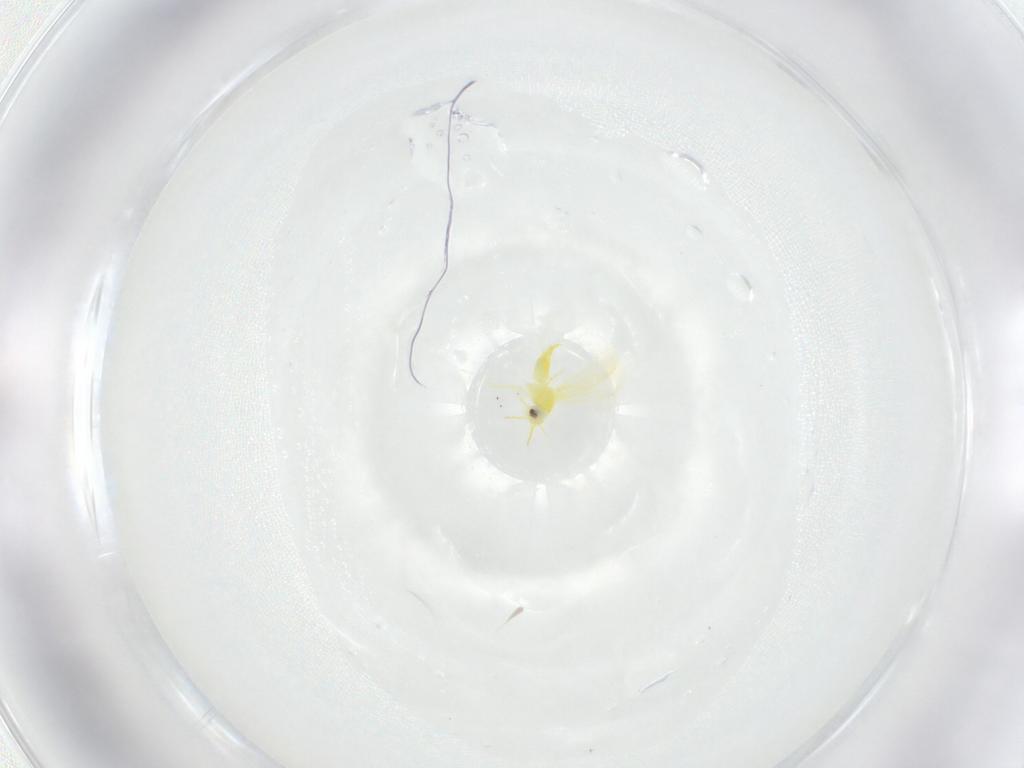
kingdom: Animalia
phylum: Arthropoda
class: Insecta
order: Hemiptera
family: Aleyrodidae
